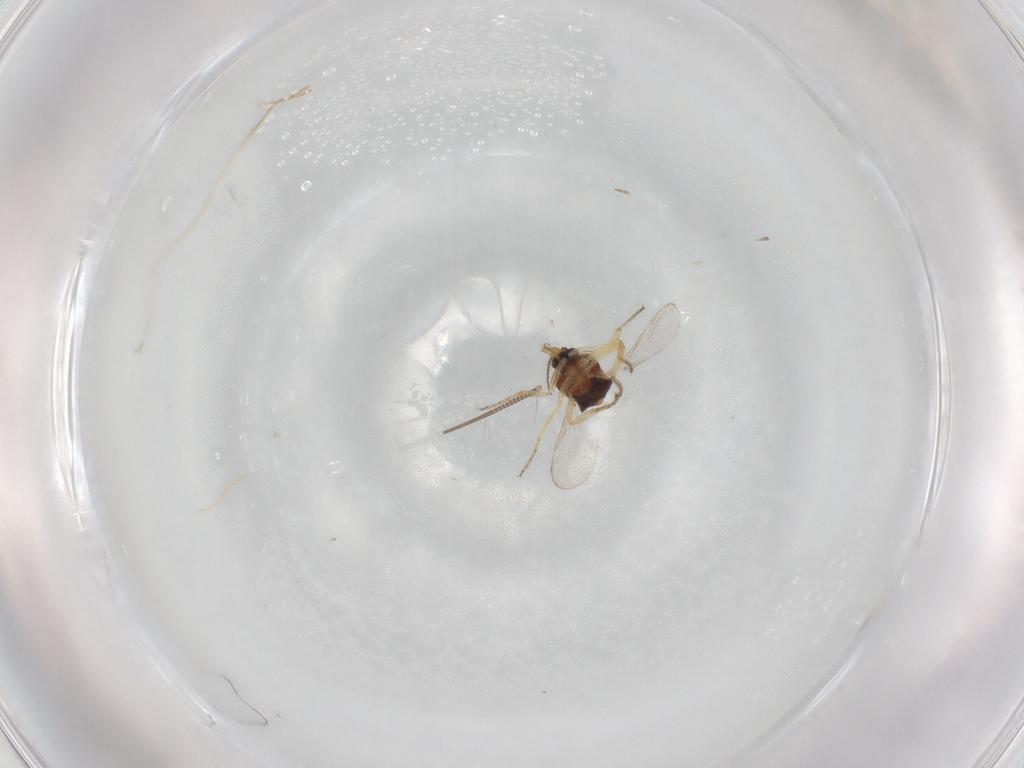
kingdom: Animalia
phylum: Arthropoda
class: Insecta
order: Diptera
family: Ceratopogonidae
